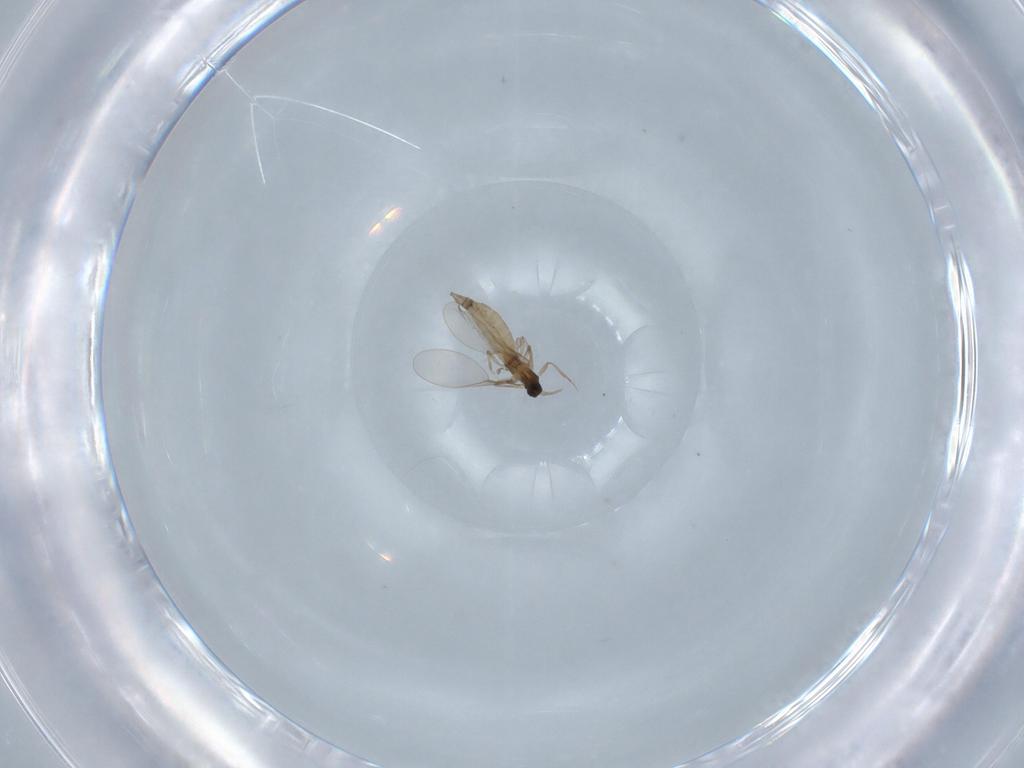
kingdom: Animalia
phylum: Arthropoda
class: Insecta
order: Diptera
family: Cecidomyiidae
